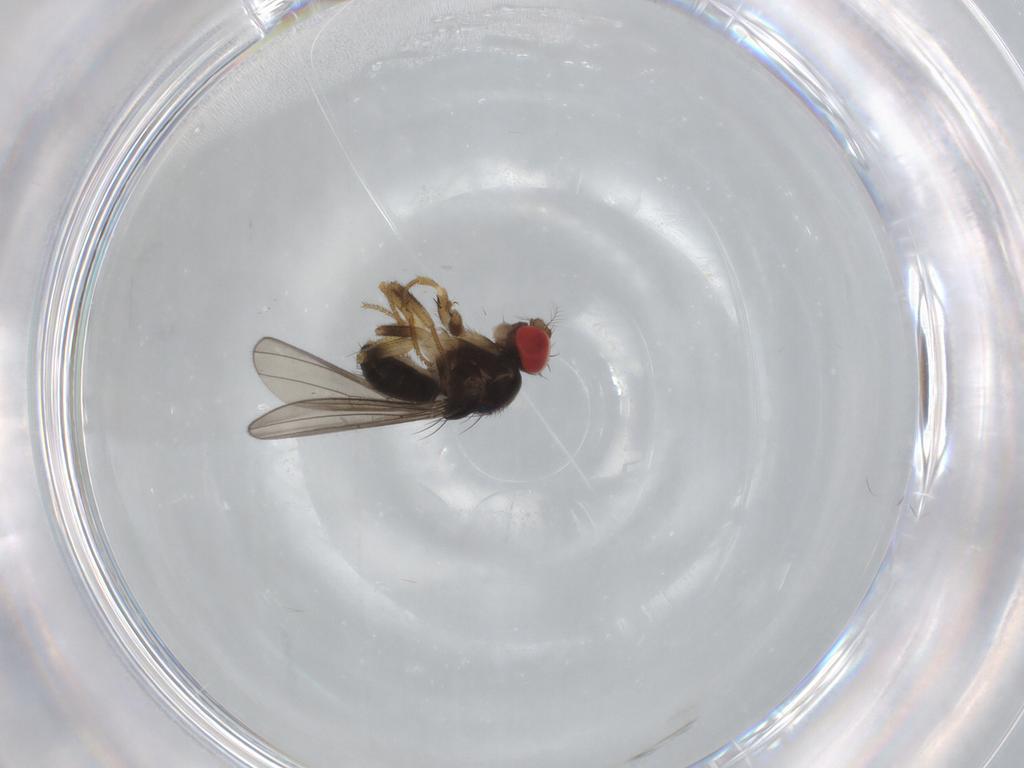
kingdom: Animalia
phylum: Arthropoda
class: Insecta
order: Diptera
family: Drosophilidae
